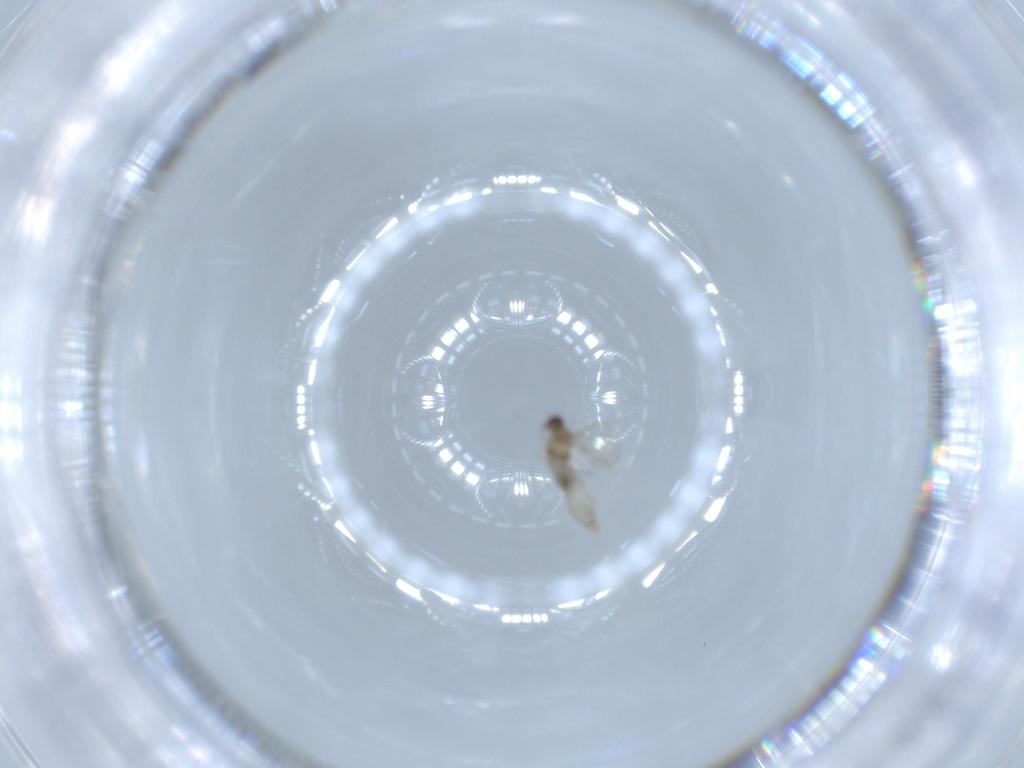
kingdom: Animalia
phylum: Arthropoda
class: Insecta
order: Diptera
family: Cecidomyiidae
